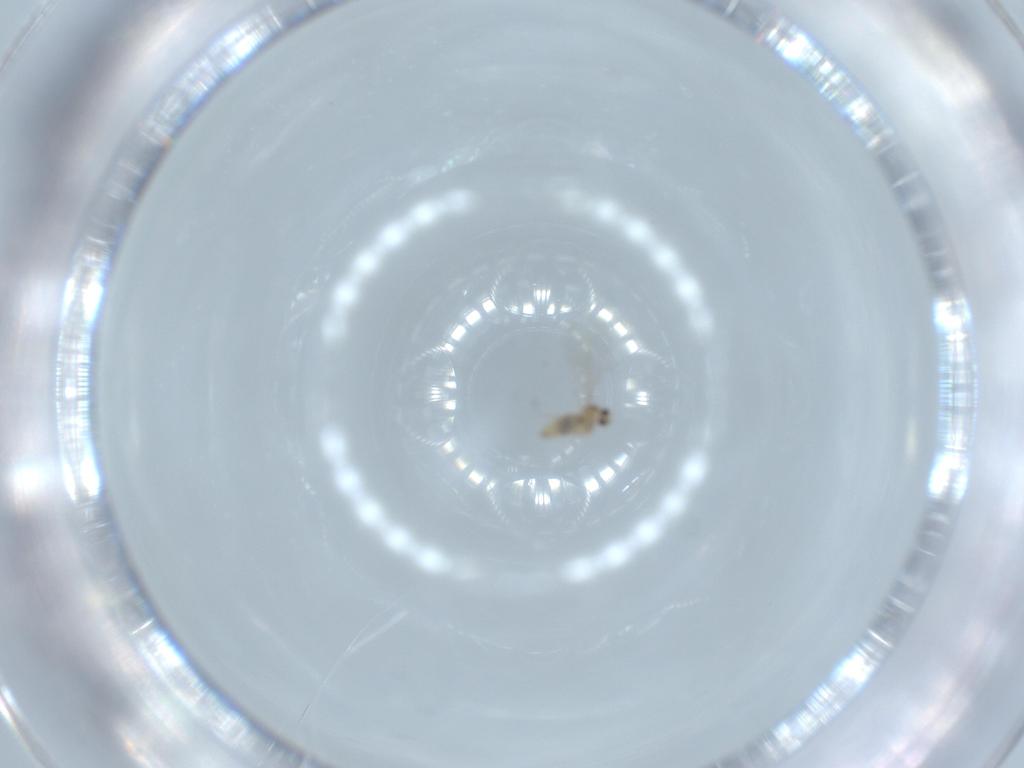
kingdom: Animalia
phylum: Arthropoda
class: Insecta
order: Diptera
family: Cecidomyiidae
